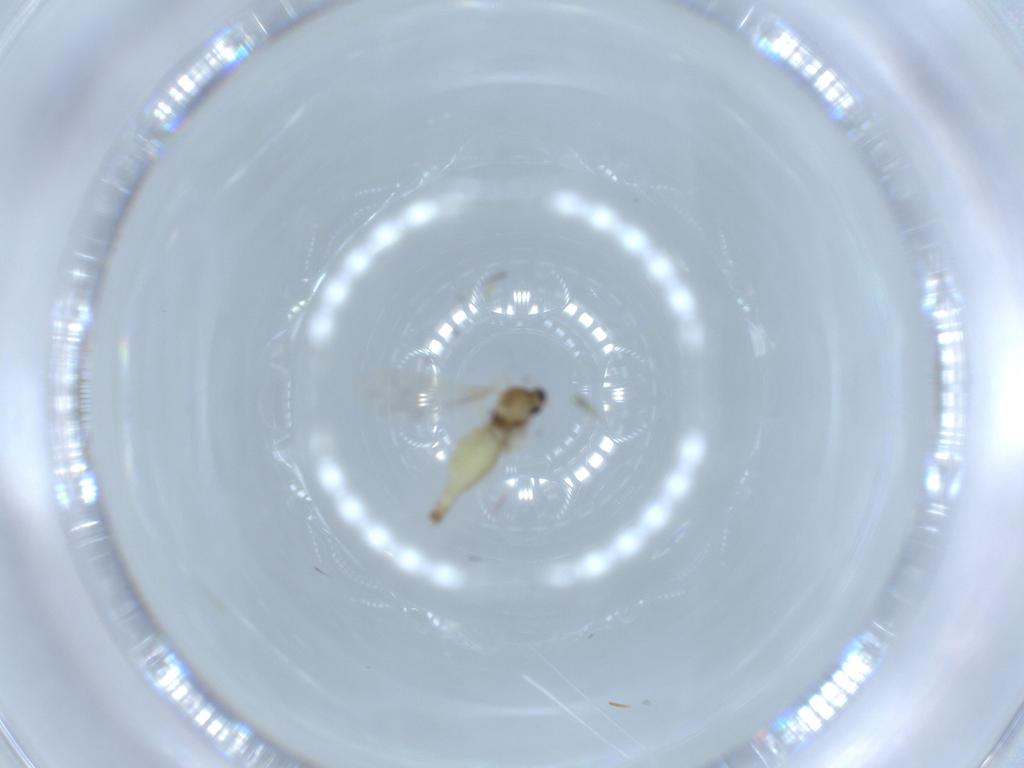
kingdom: Animalia
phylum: Arthropoda
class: Insecta
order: Diptera
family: Cecidomyiidae
